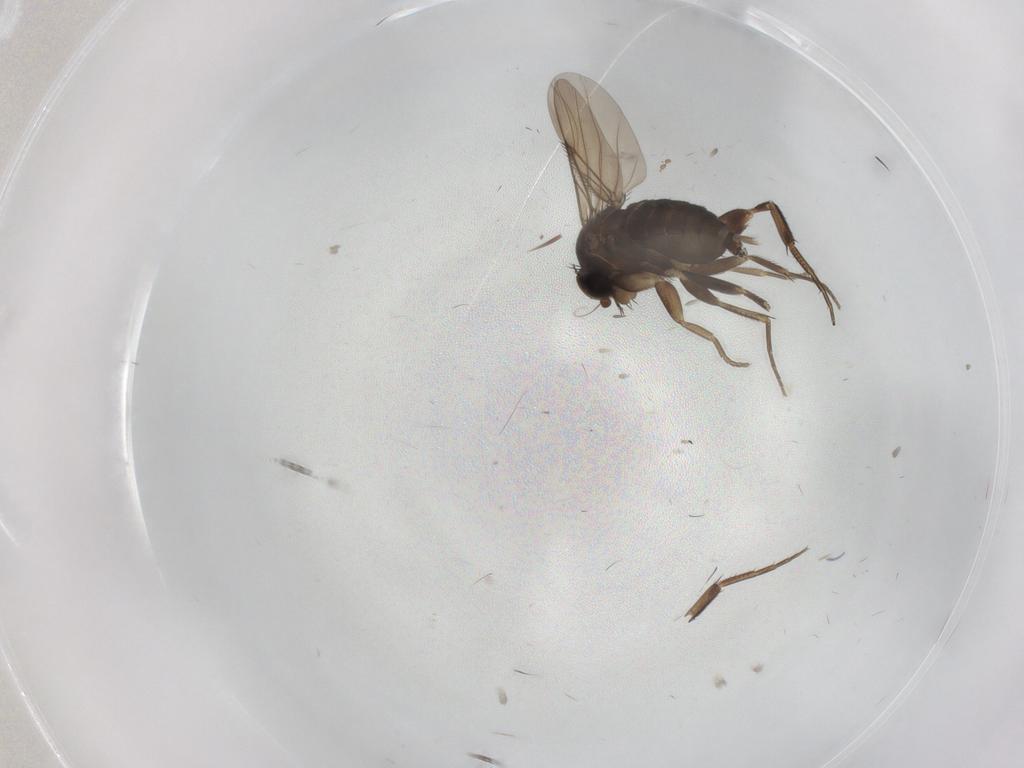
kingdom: Animalia
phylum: Arthropoda
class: Insecta
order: Diptera
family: Phoridae
